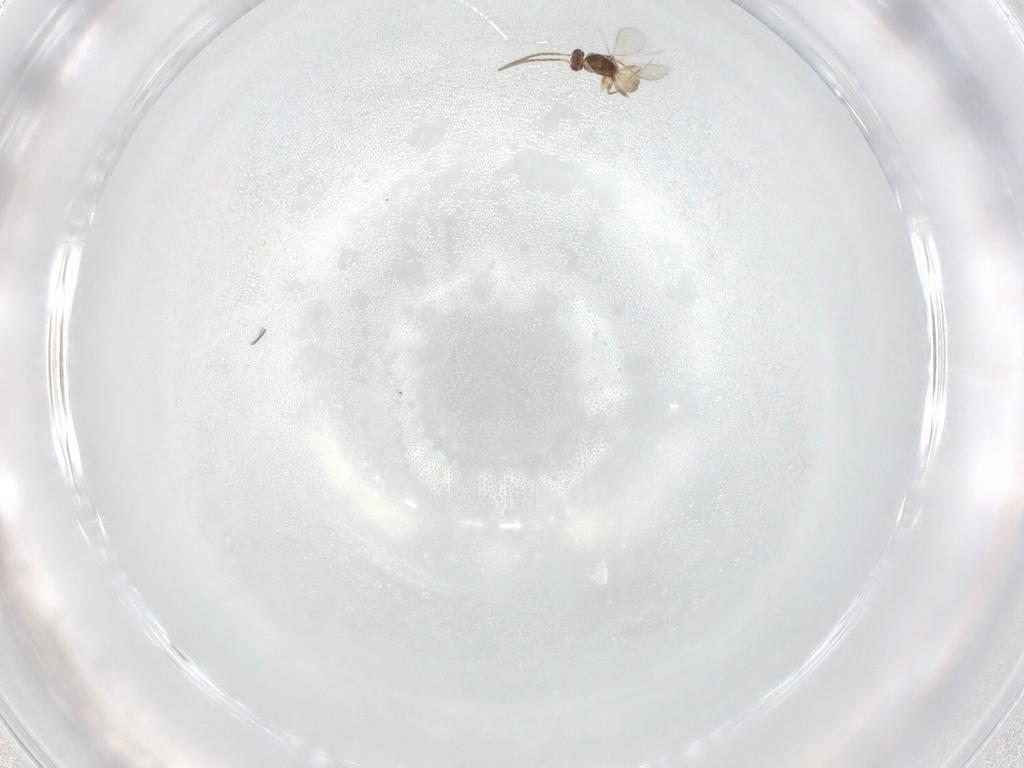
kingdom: Animalia
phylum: Arthropoda
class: Insecta
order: Hymenoptera
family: Mymaridae
